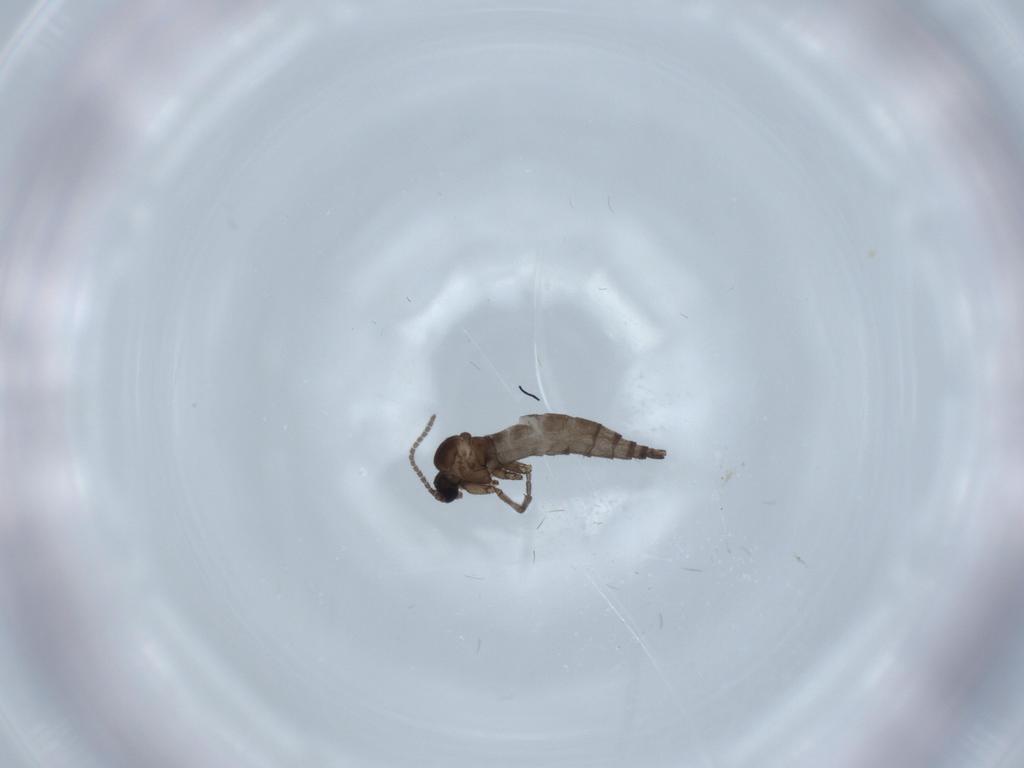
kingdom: Animalia
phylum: Arthropoda
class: Insecta
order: Diptera
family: Sciaridae
